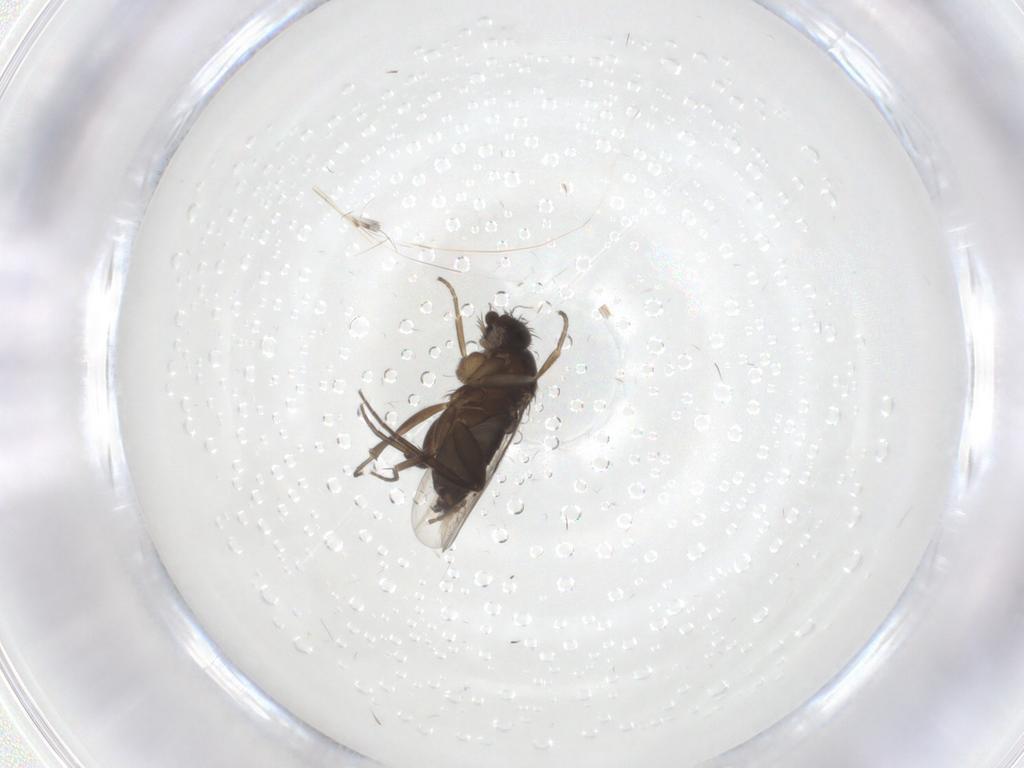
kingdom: Animalia
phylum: Arthropoda
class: Insecta
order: Diptera
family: Phoridae
